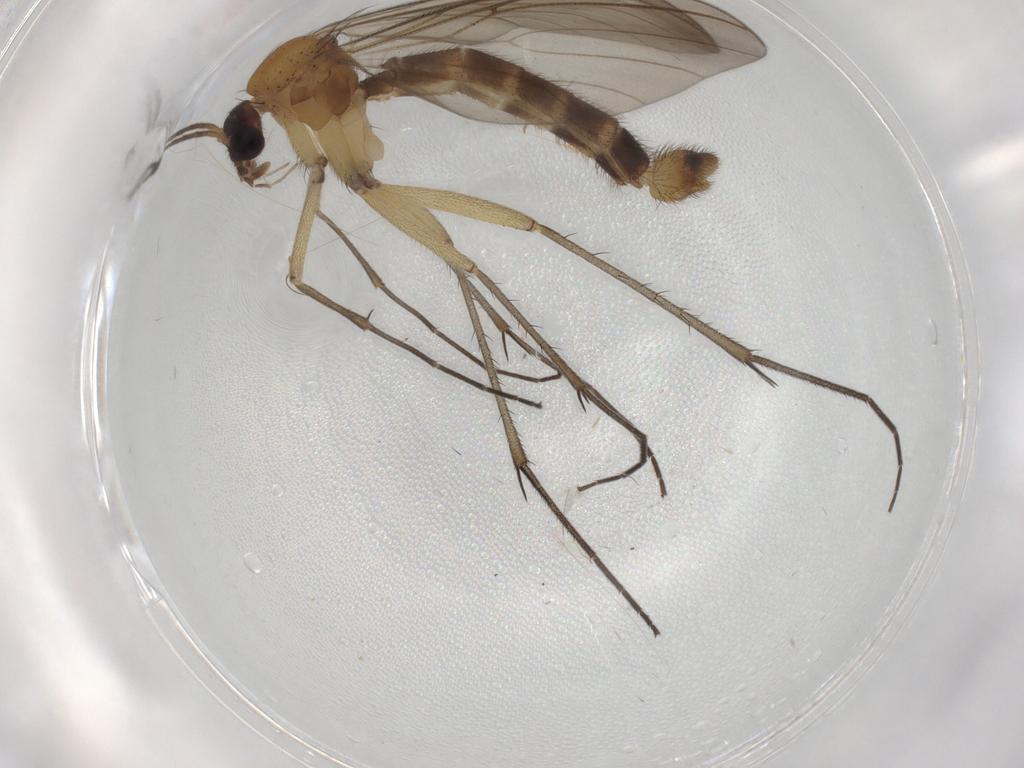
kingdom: Animalia
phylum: Arthropoda
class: Insecta
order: Diptera
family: Mycetophilidae
